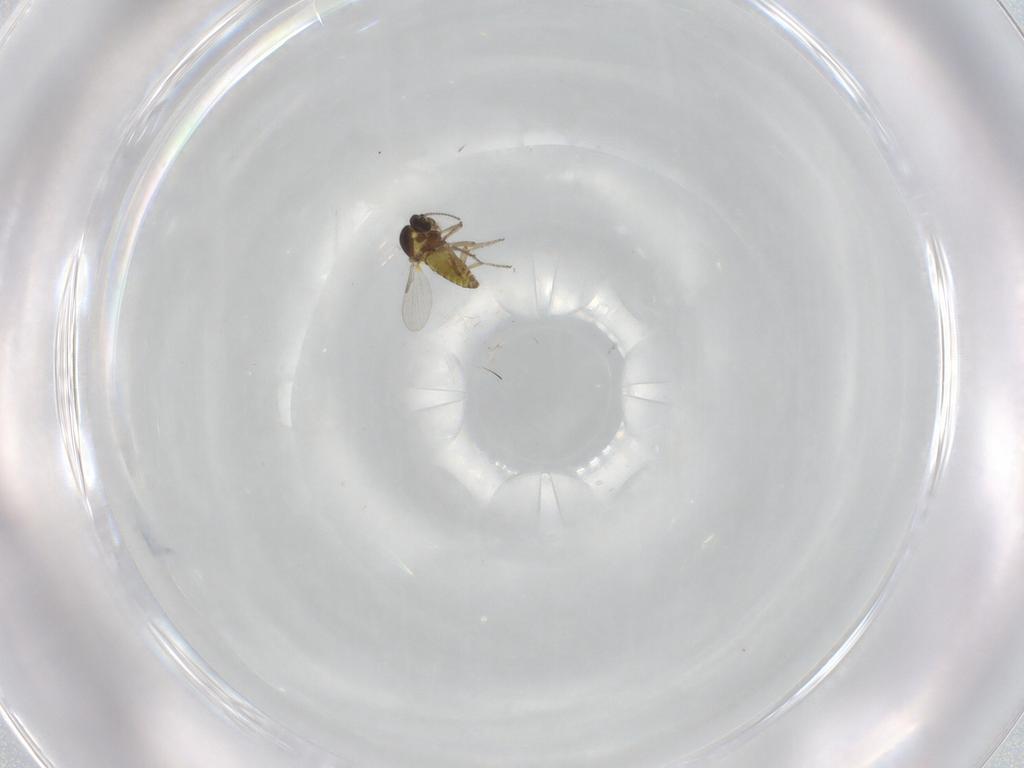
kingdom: Animalia
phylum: Arthropoda
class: Insecta
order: Diptera
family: Ceratopogonidae
